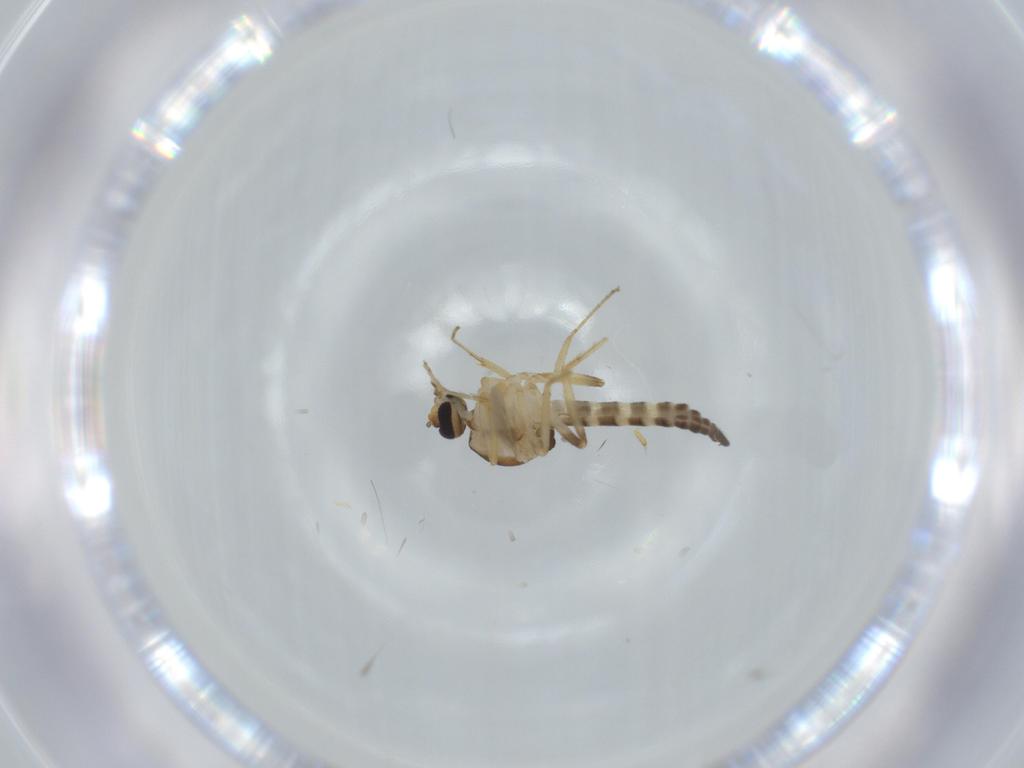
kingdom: Animalia
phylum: Arthropoda
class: Insecta
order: Diptera
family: Ceratopogonidae
